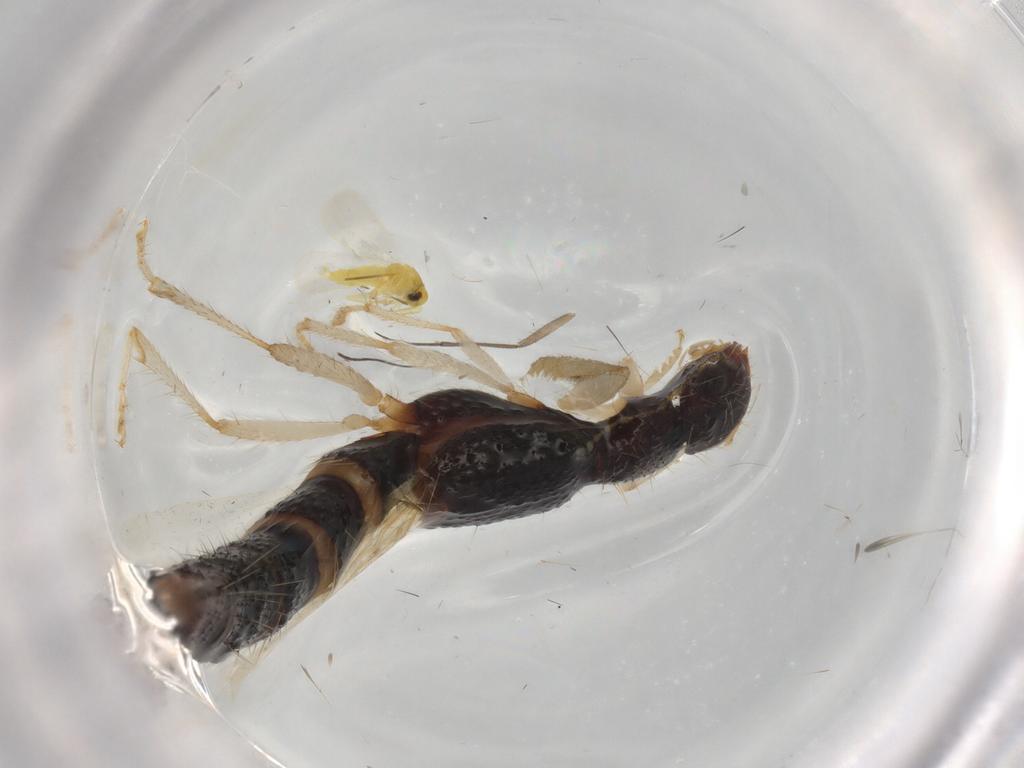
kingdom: Animalia
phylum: Arthropoda
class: Insecta
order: Coleoptera
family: Staphylinidae
